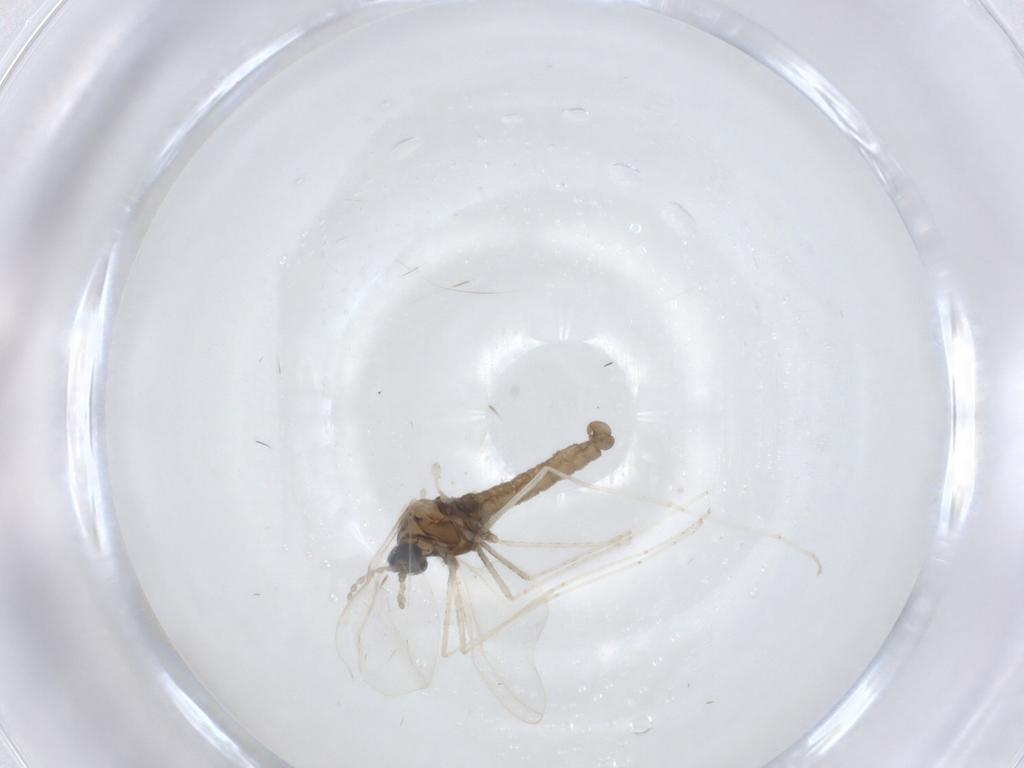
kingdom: Animalia
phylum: Arthropoda
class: Insecta
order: Diptera
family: Cecidomyiidae
